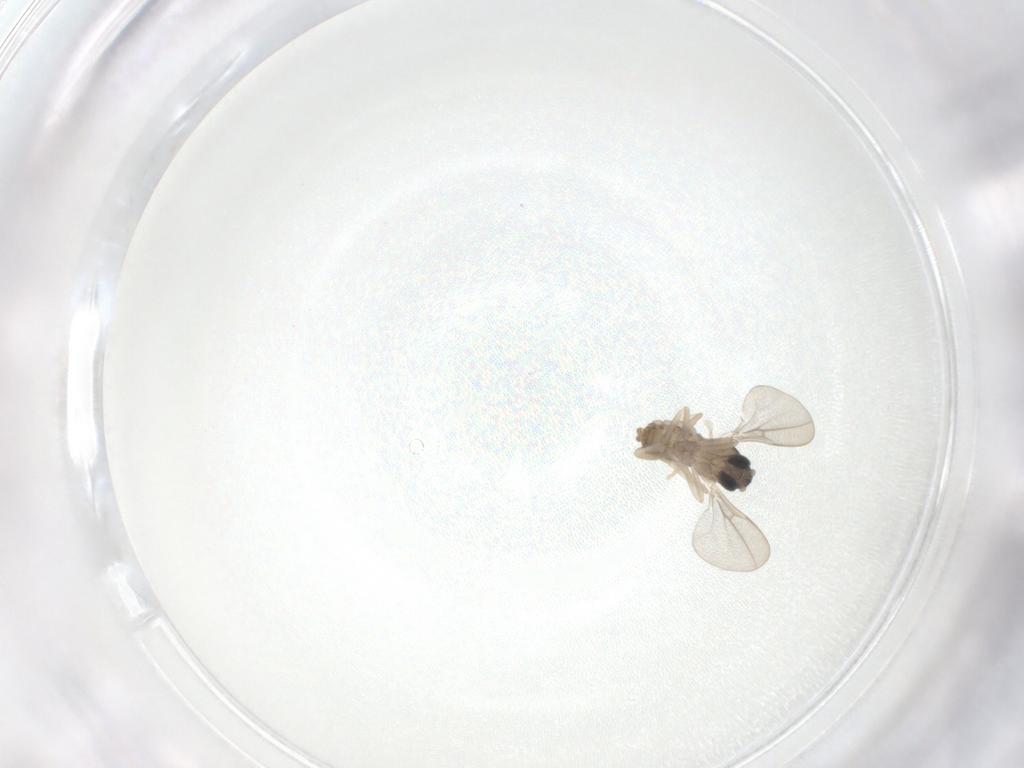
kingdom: Animalia
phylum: Arthropoda
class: Insecta
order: Diptera
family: Cecidomyiidae
